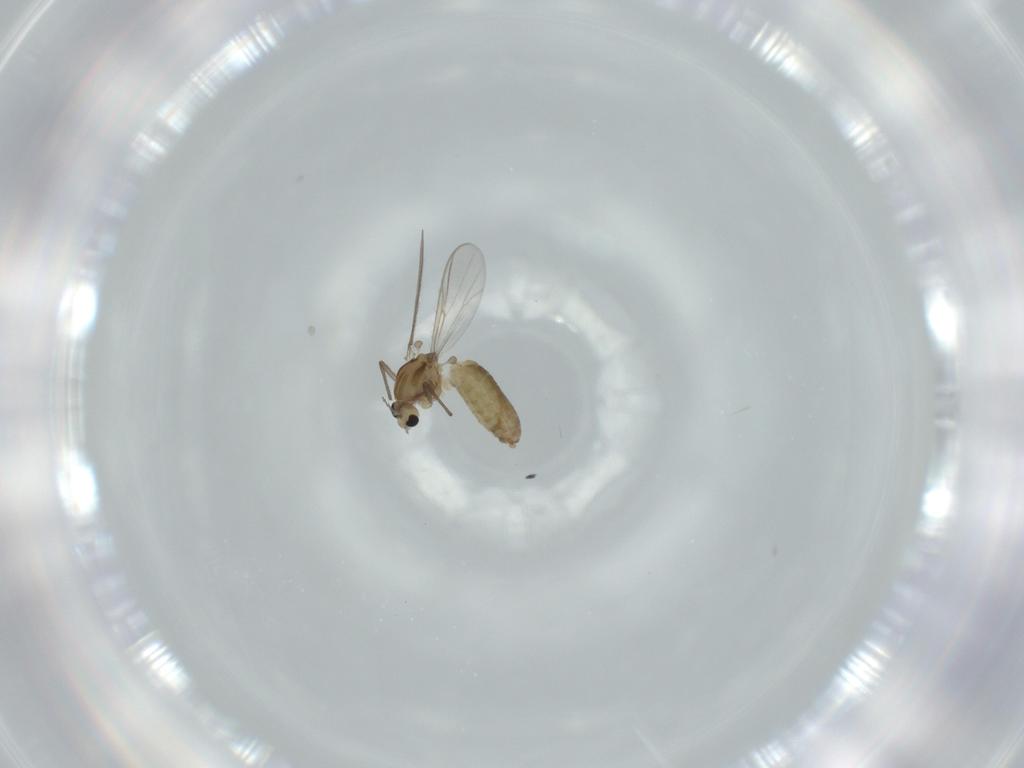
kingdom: Animalia
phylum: Arthropoda
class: Insecta
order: Diptera
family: Chironomidae
